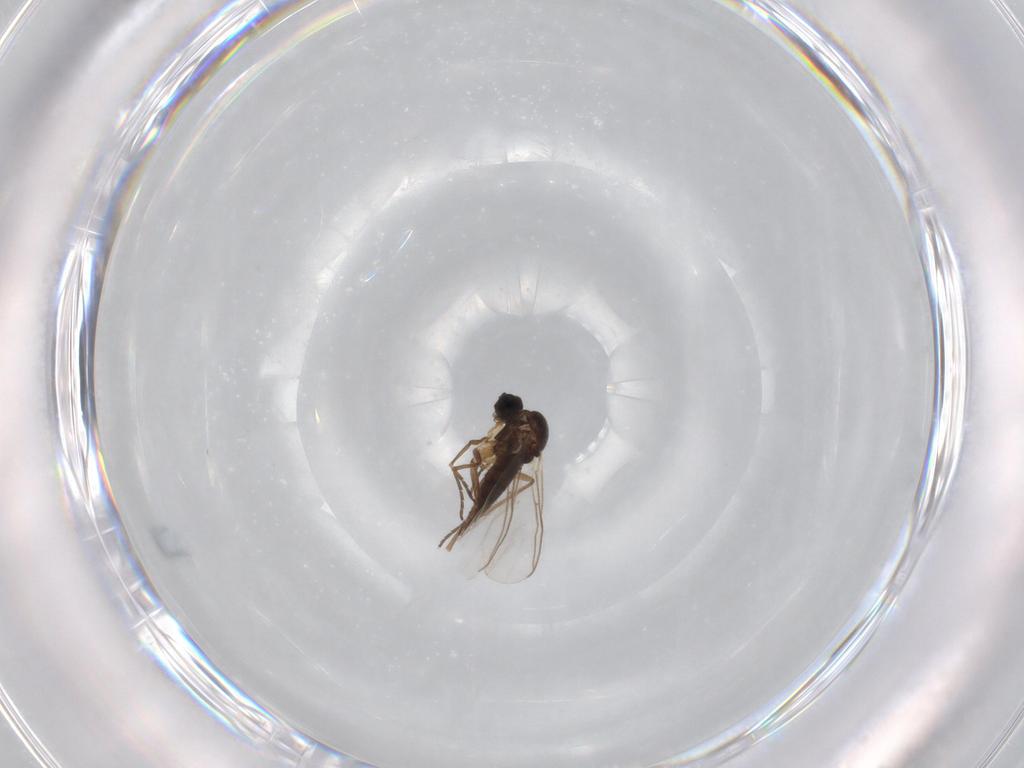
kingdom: Animalia
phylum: Arthropoda
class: Insecta
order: Diptera
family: Sciaridae
